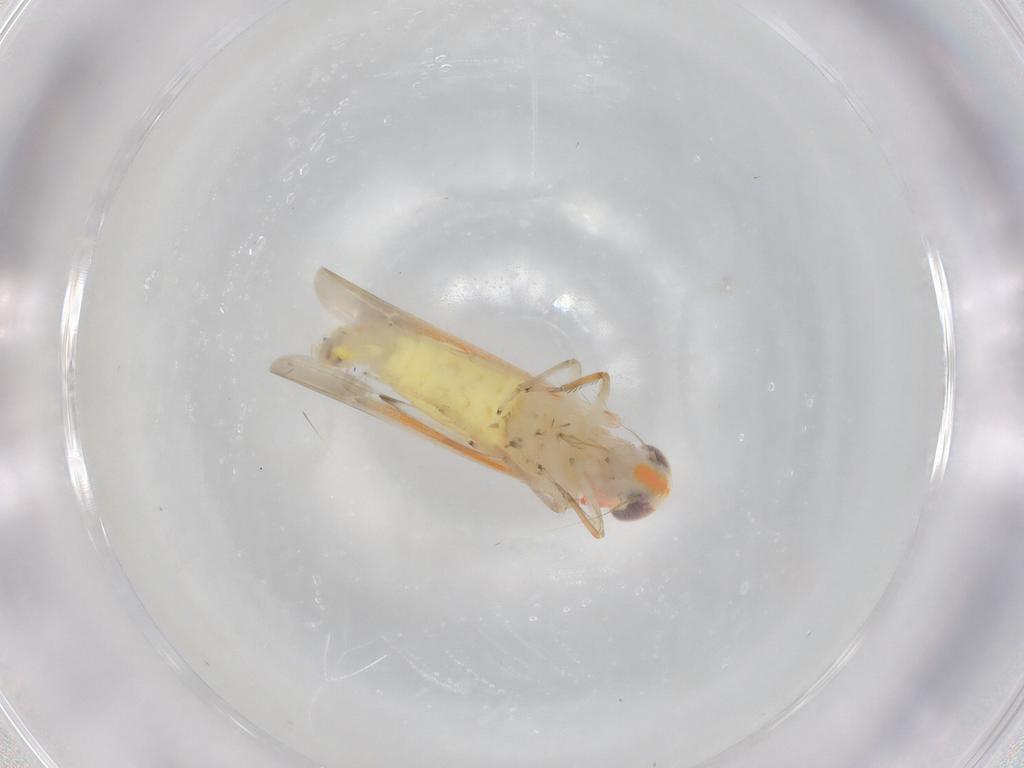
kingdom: Animalia
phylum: Arthropoda
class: Insecta
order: Hemiptera
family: Cicadellidae
